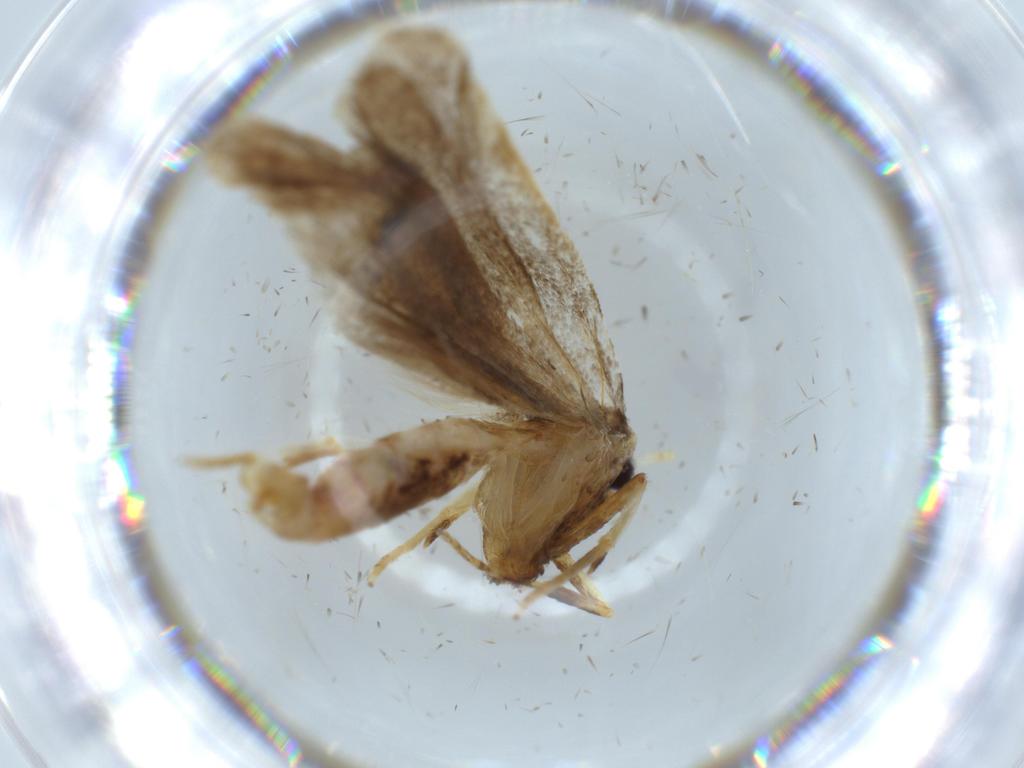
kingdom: Animalia
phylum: Arthropoda
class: Insecta
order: Lepidoptera
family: Lecithoceridae
